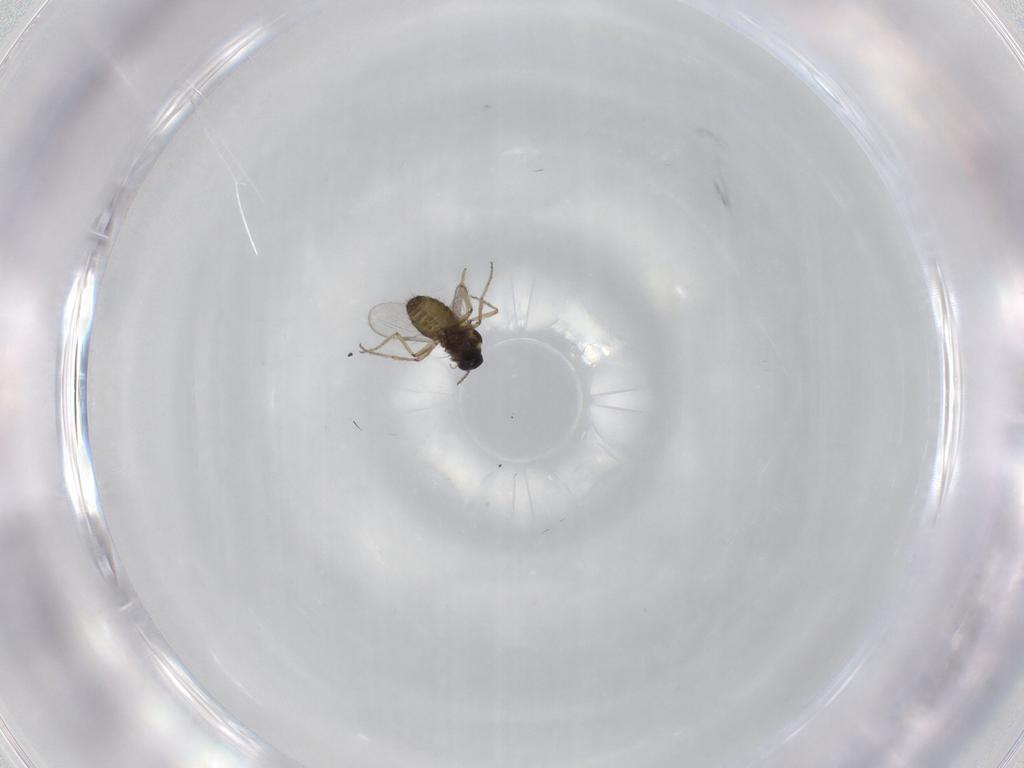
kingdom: Animalia
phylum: Arthropoda
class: Insecta
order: Diptera
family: Ceratopogonidae
